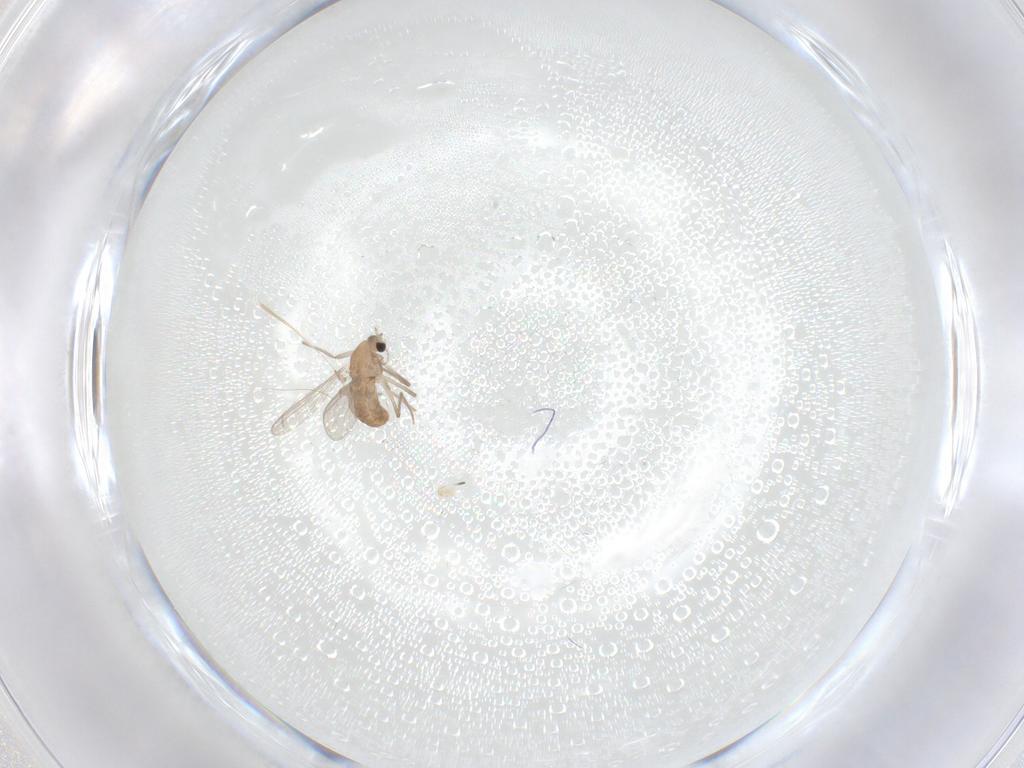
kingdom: Animalia
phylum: Arthropoda
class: Insecta
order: Diptera
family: Chironomidae
